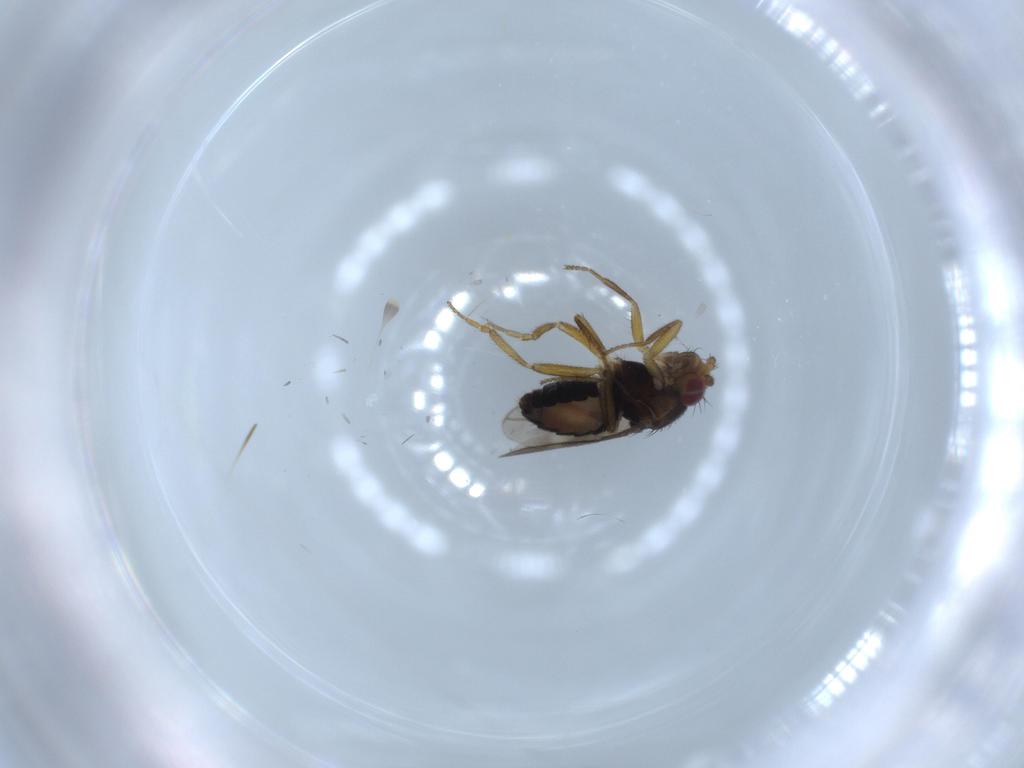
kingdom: Animalia
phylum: Arthropoda
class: Insecta
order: Diptera
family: Sphaeroceridae
